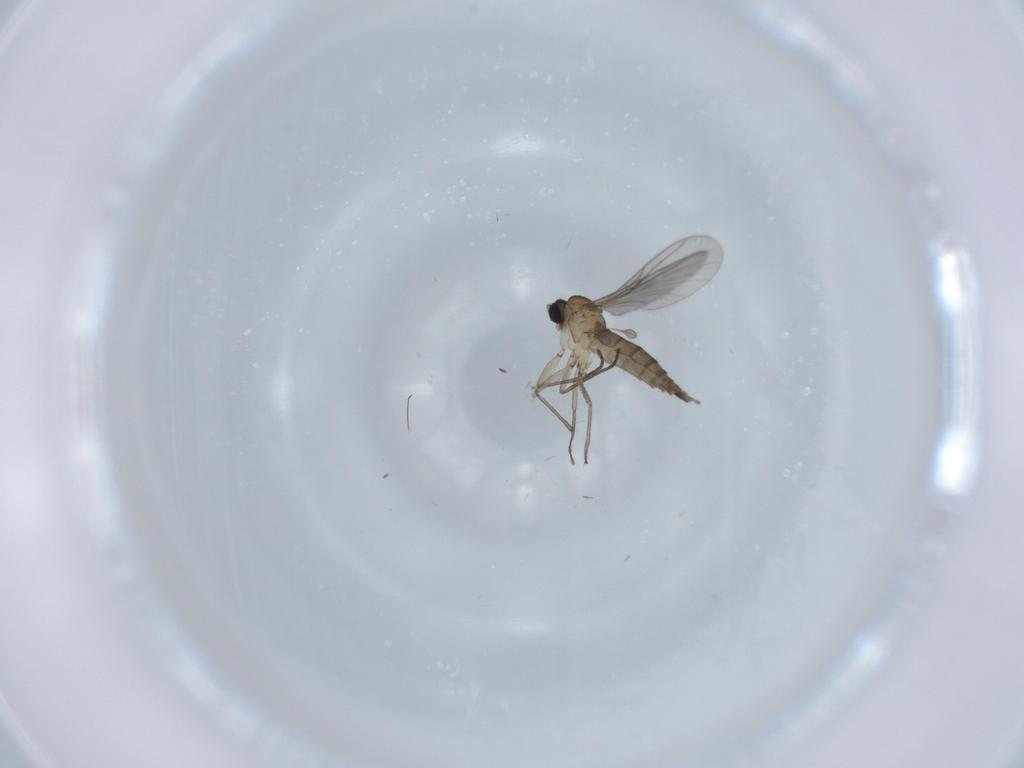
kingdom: Animalia
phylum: Arthropoda
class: Insecta
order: Diptera
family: Sciaridae
